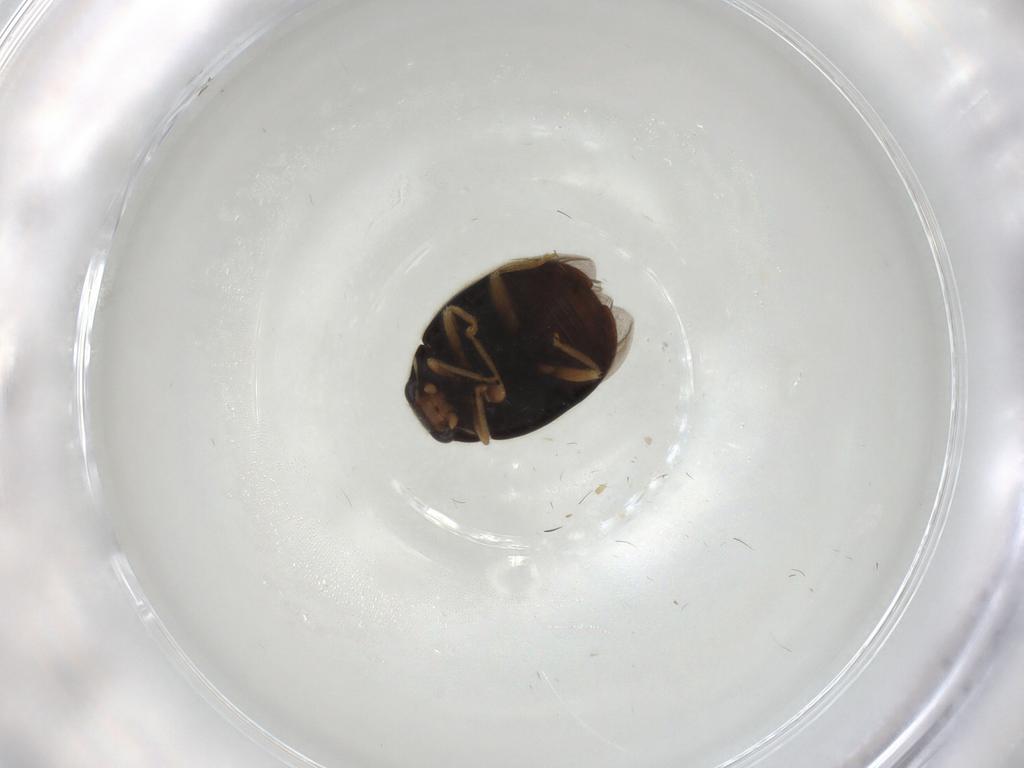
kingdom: Animalia
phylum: Arthropoda
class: Insecta
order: Coleoptera
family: Coccinellidae
